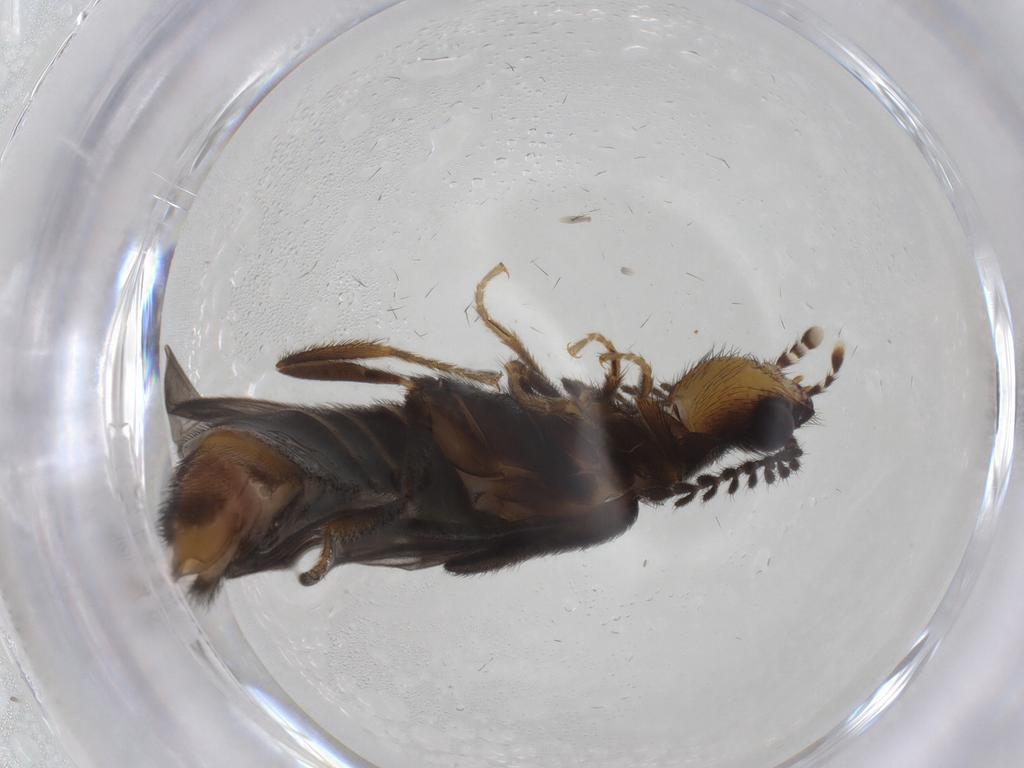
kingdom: Animalia
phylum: Arthropoda
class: Insecta
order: Coleoptera
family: Phengodidae
